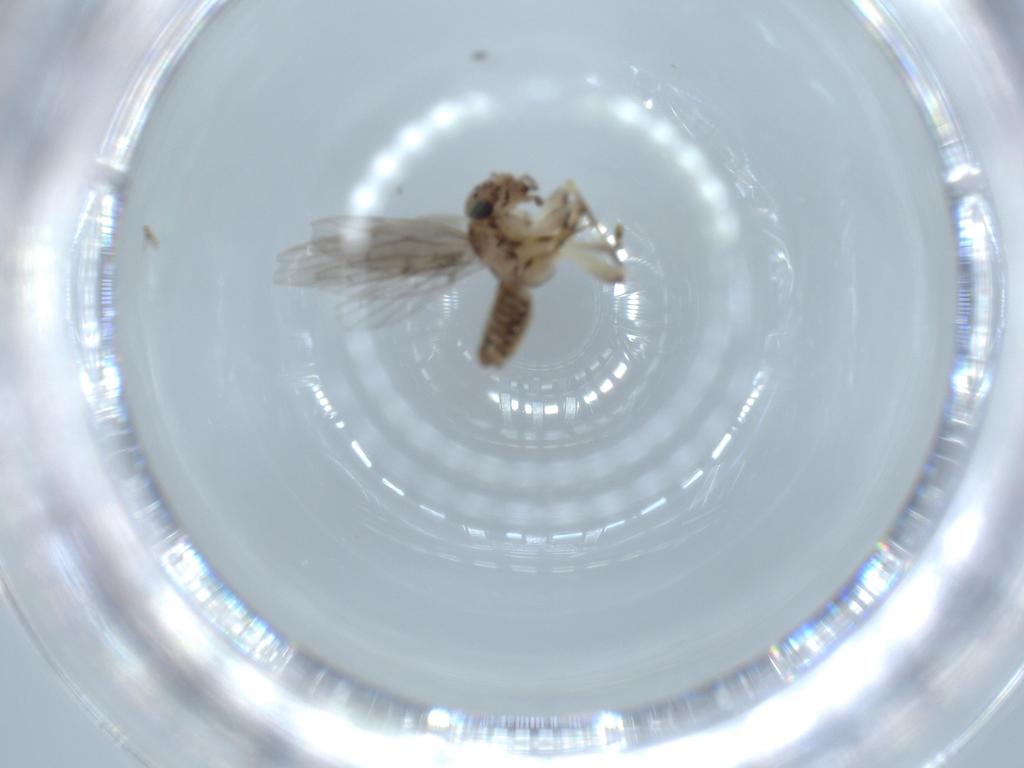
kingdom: Animalia
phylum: Arthropoda
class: Insecta
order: Psocodea
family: Lepidopsocidae
